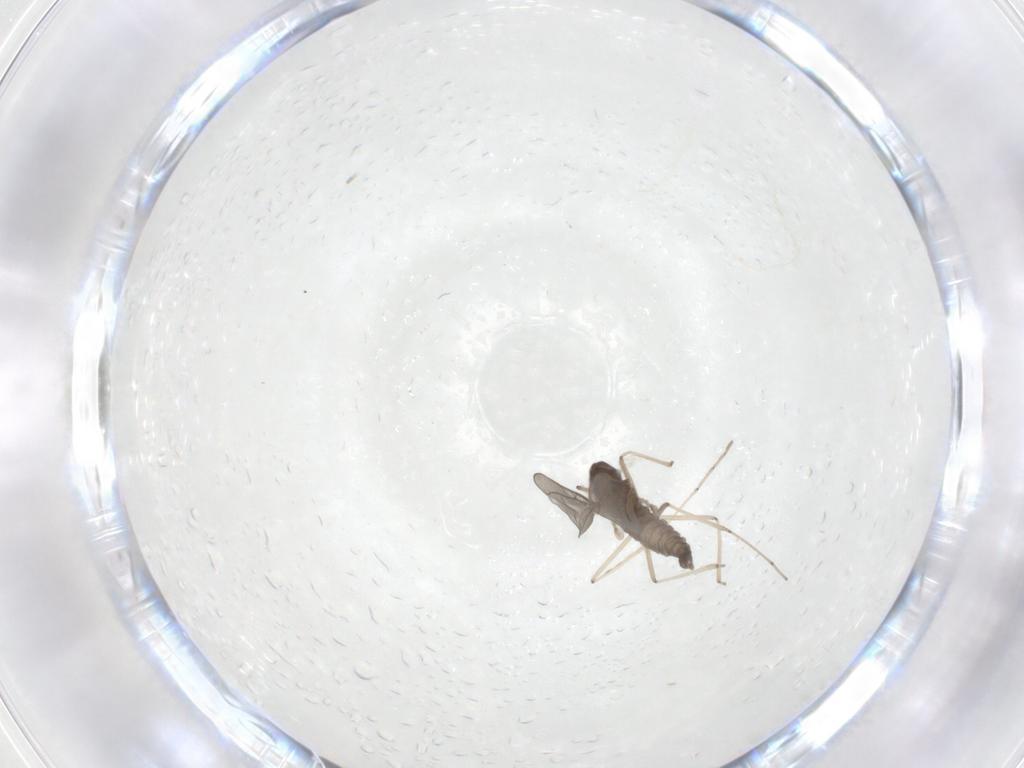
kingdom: Animalia
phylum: Arthropoda
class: Insecta
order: Diptera
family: Cecidomyiidae
